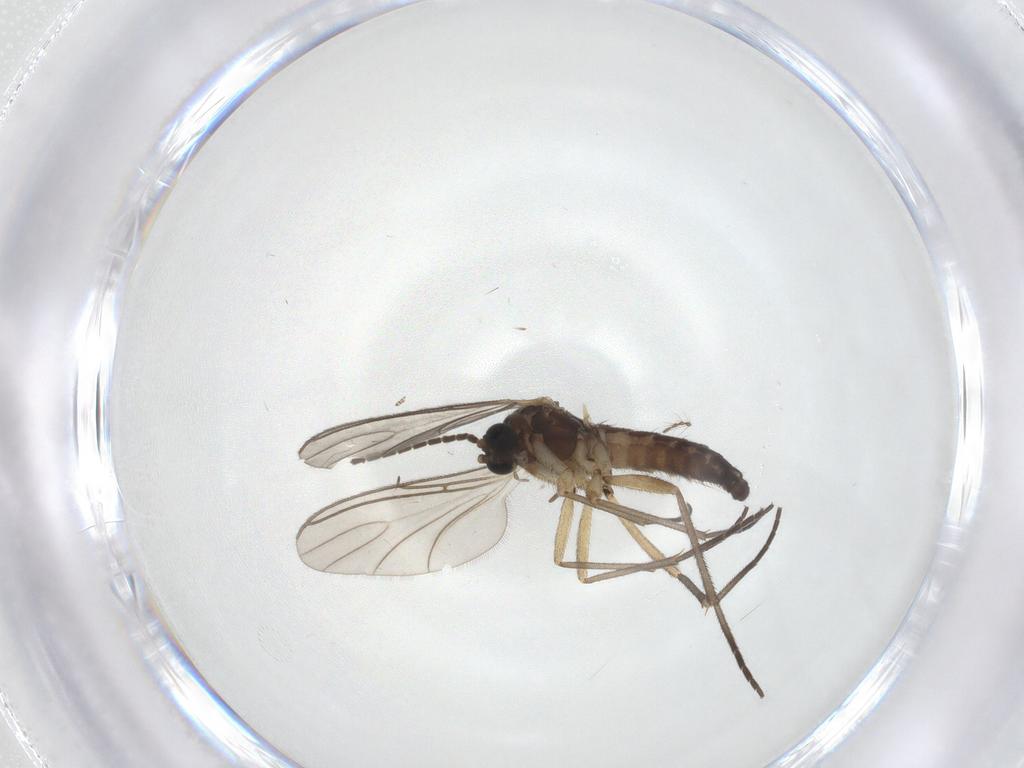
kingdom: Animalia
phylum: Arthropoda
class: Insecta
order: Diptera
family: Sciaridae
